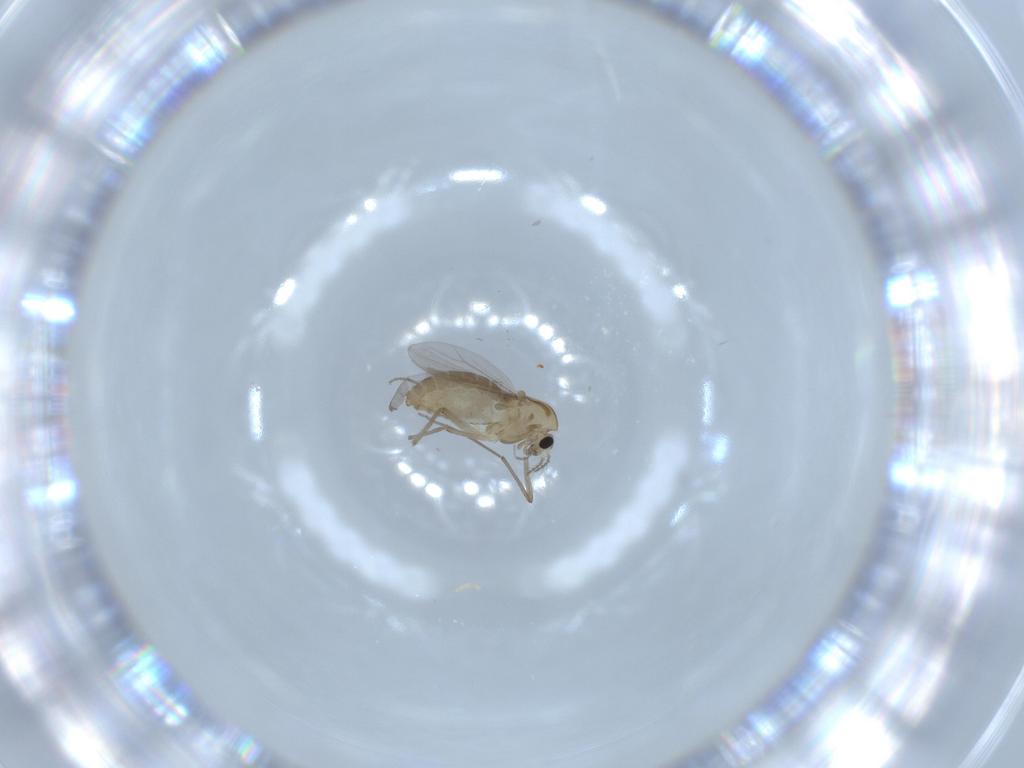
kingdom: Animalia
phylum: Arthropoda
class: Insecta
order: Diptera
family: Chironomidae
